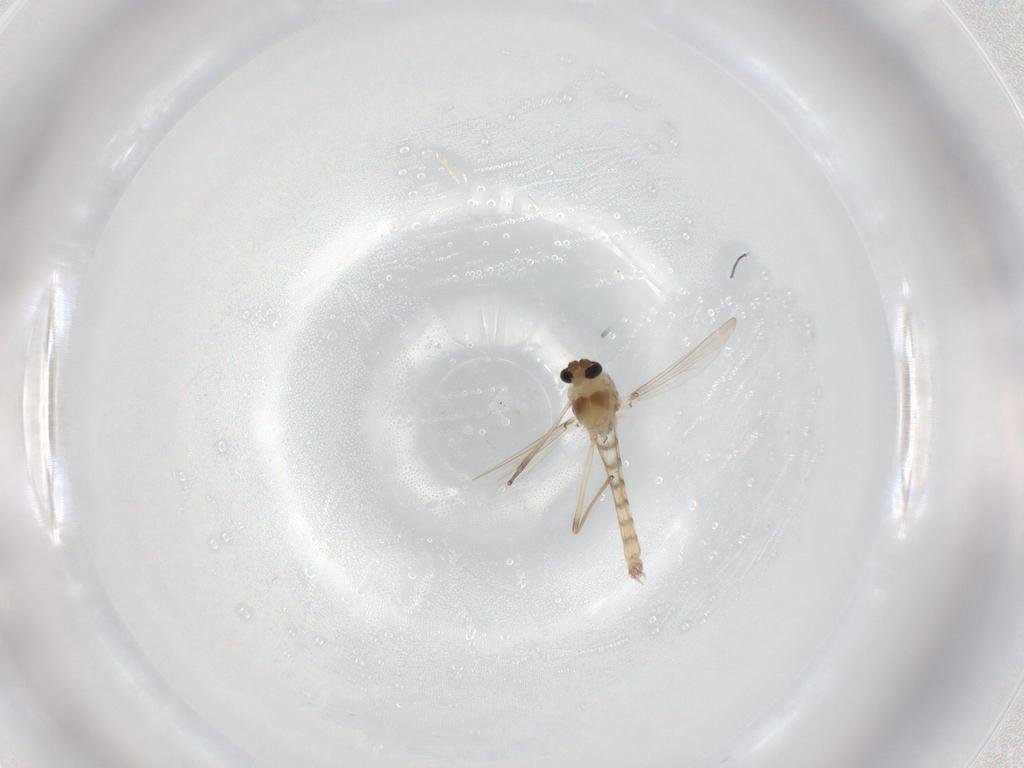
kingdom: Animalia
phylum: Arthropoda
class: Insecta
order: Diptera
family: Chironomidae
